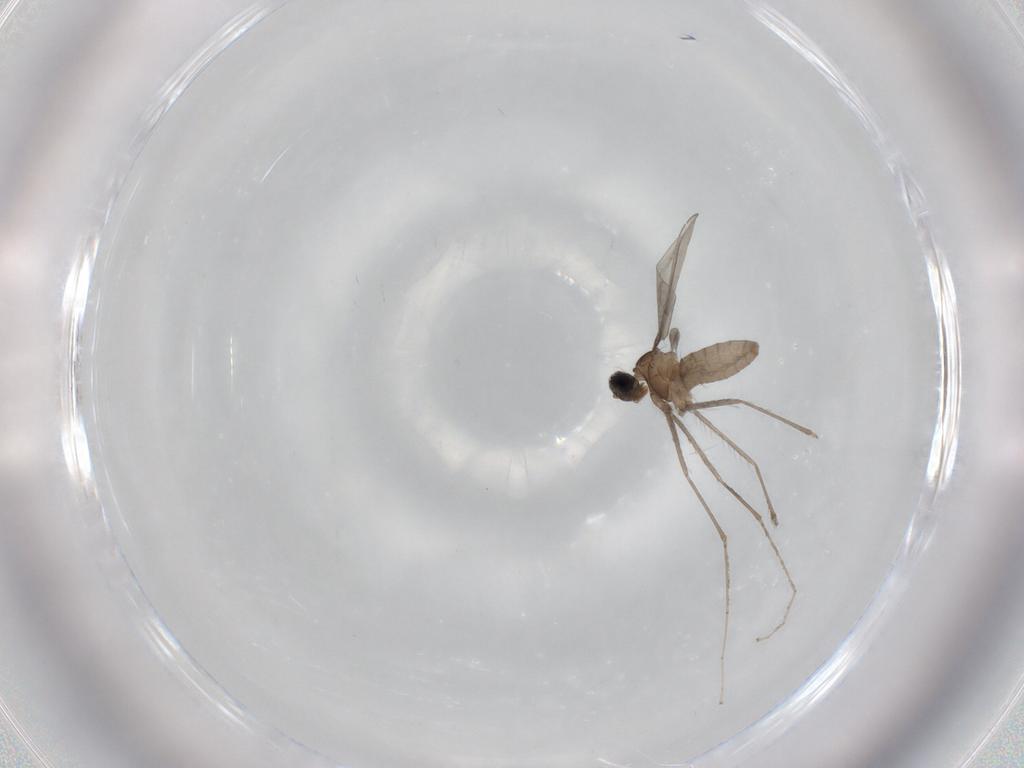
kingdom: Animalia
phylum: Arthropoda
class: Insecta
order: Diptera
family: Cecidomyiidae
